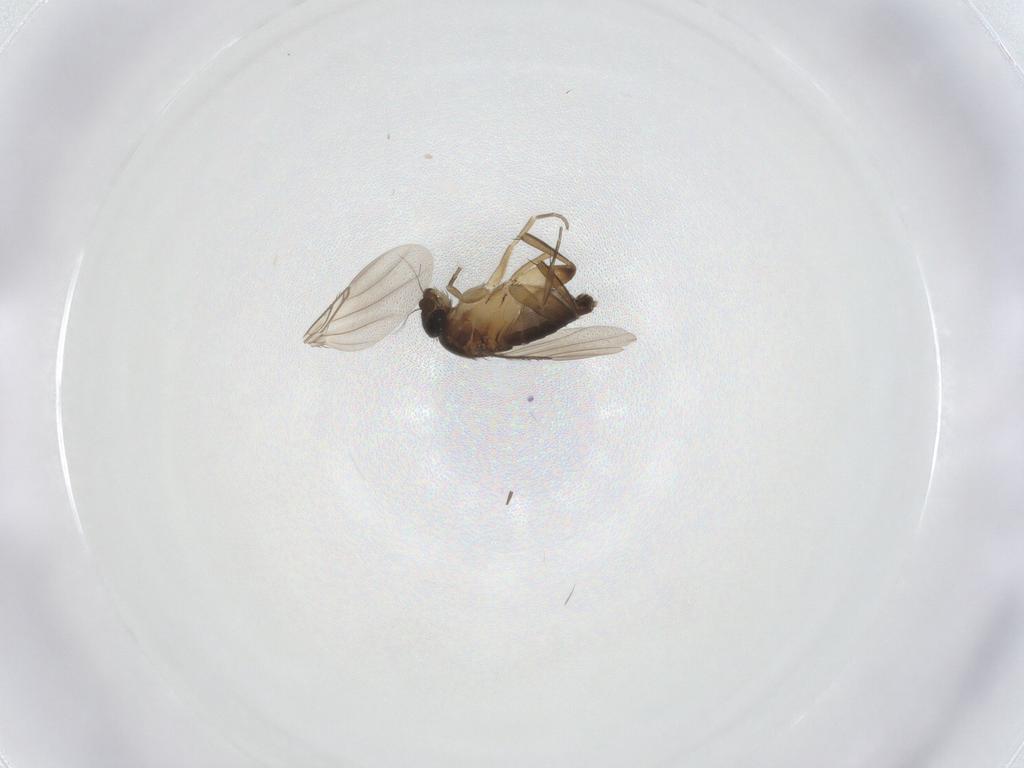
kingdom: Animalia
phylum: Arthropoda
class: Insecta
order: Diptera
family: Phoridae
